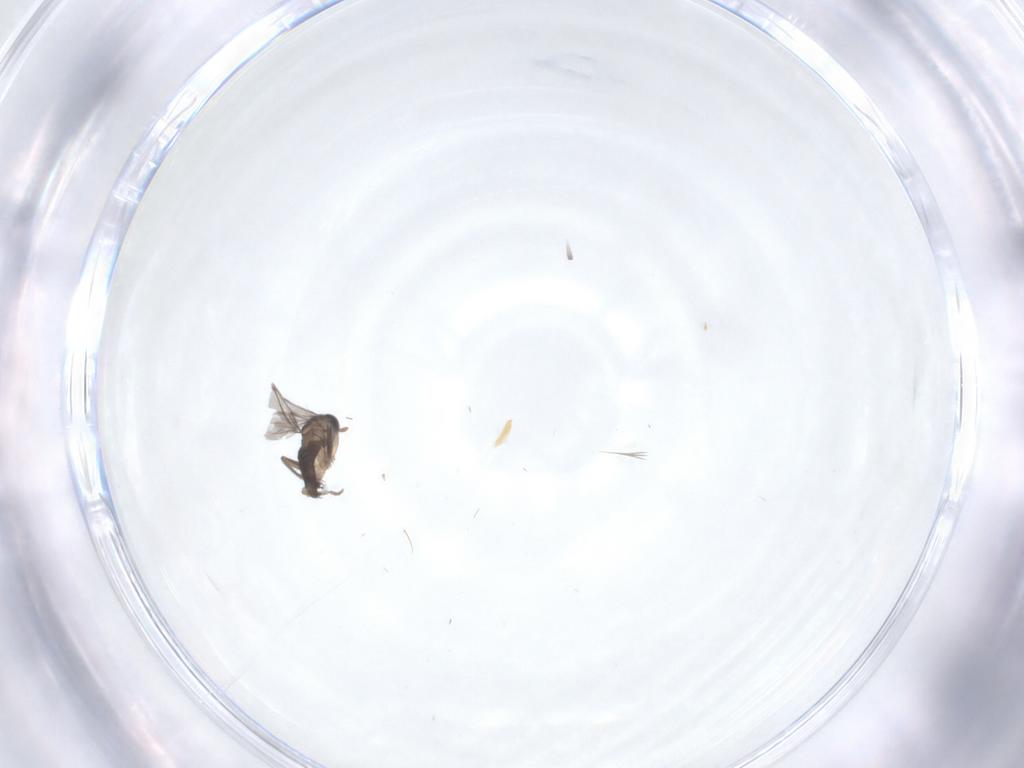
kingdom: Animalia
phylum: Arthropoda
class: Insecta
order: Diptera
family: Phoridae
